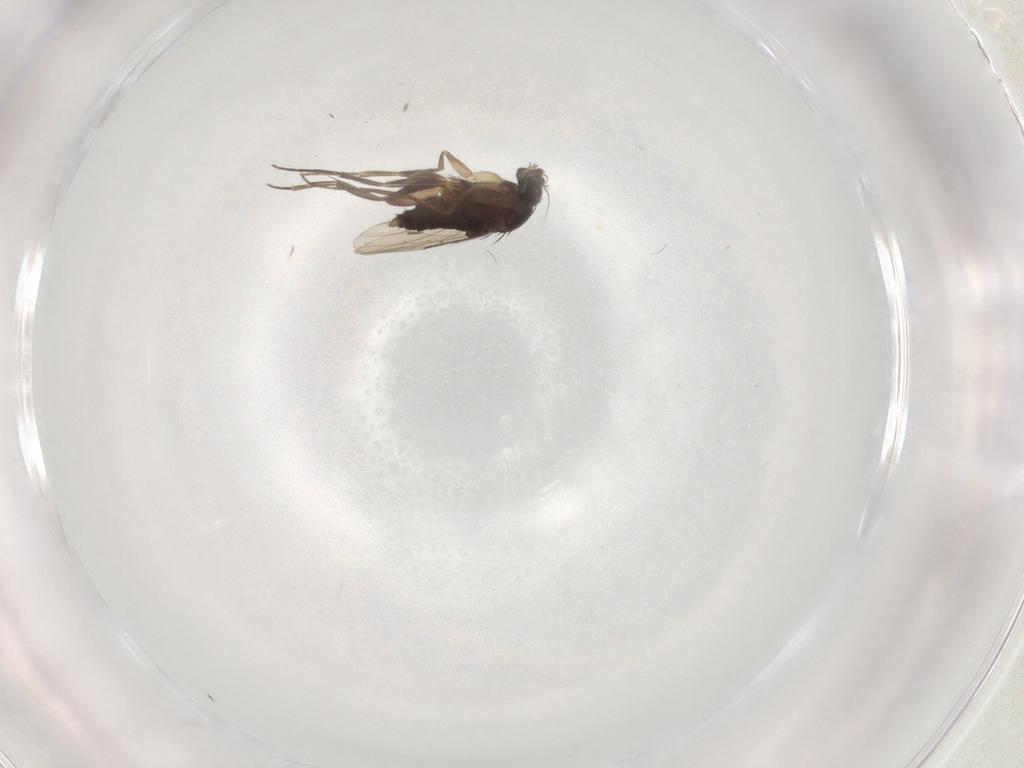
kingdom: Animalia
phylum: Arthropoda
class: Insecta
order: Diptera
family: Phoridae
